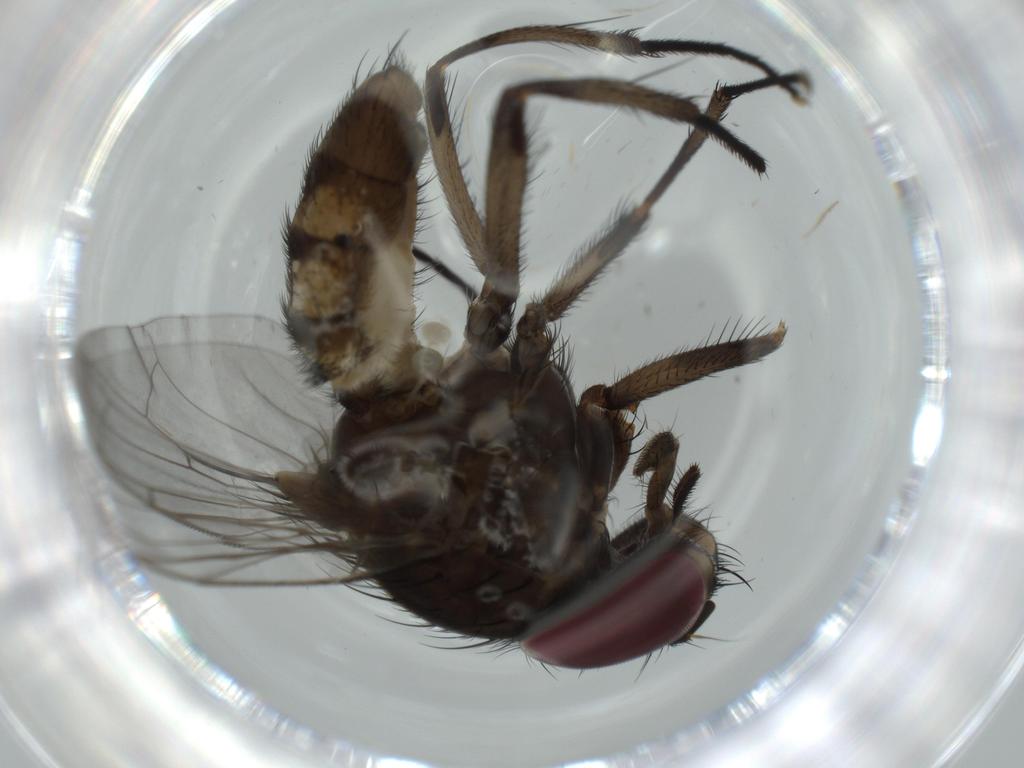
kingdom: Animalia
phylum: Arthropoda
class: Insecta
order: Diptera
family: Fannia
